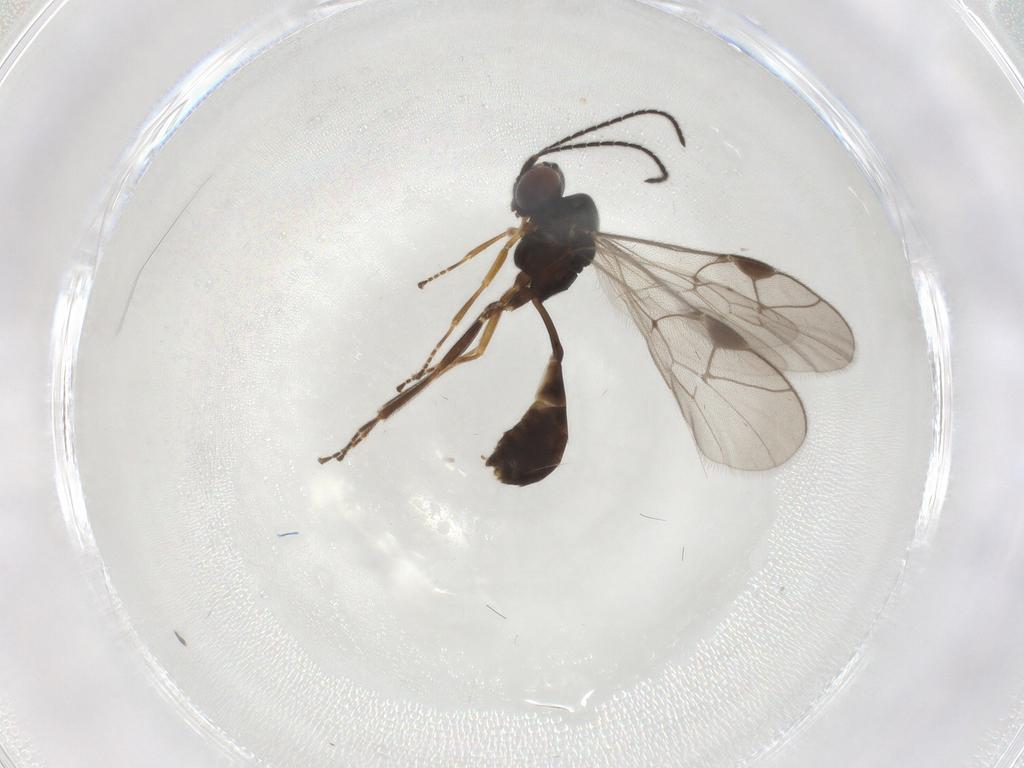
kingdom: Animalia
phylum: Arthropoda
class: Insecta
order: Hymenoptera
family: Ichneumonidae
